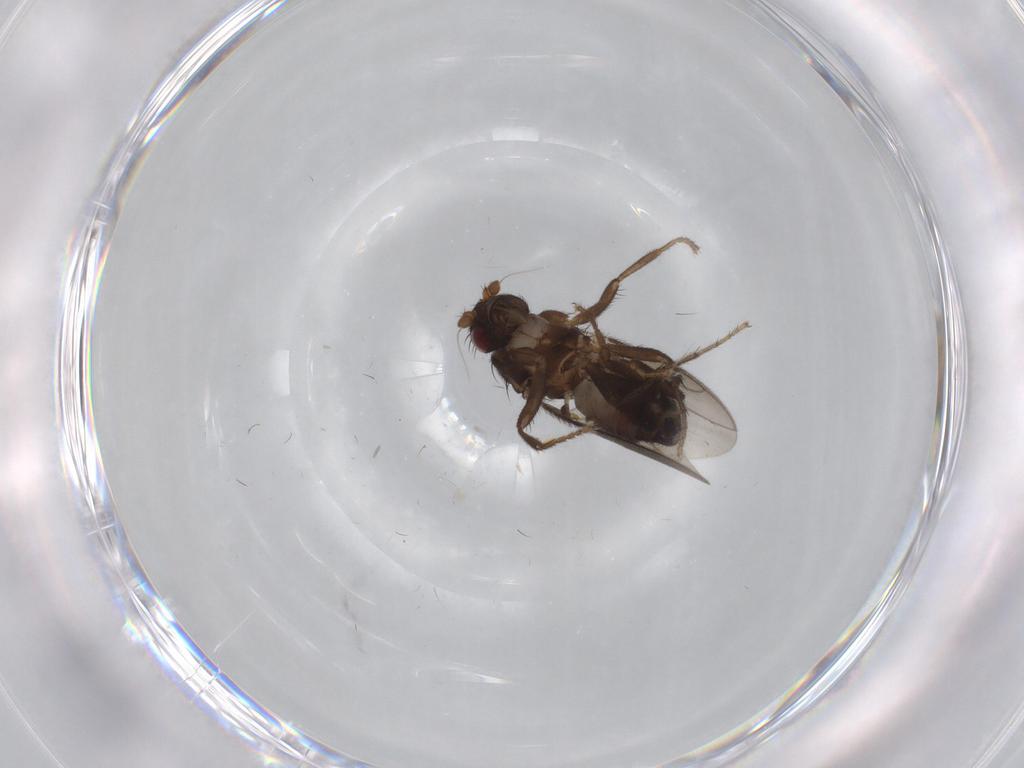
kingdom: Animalia
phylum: Arthropoda
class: Insecta
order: Diptera
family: Sphaeroceridae
